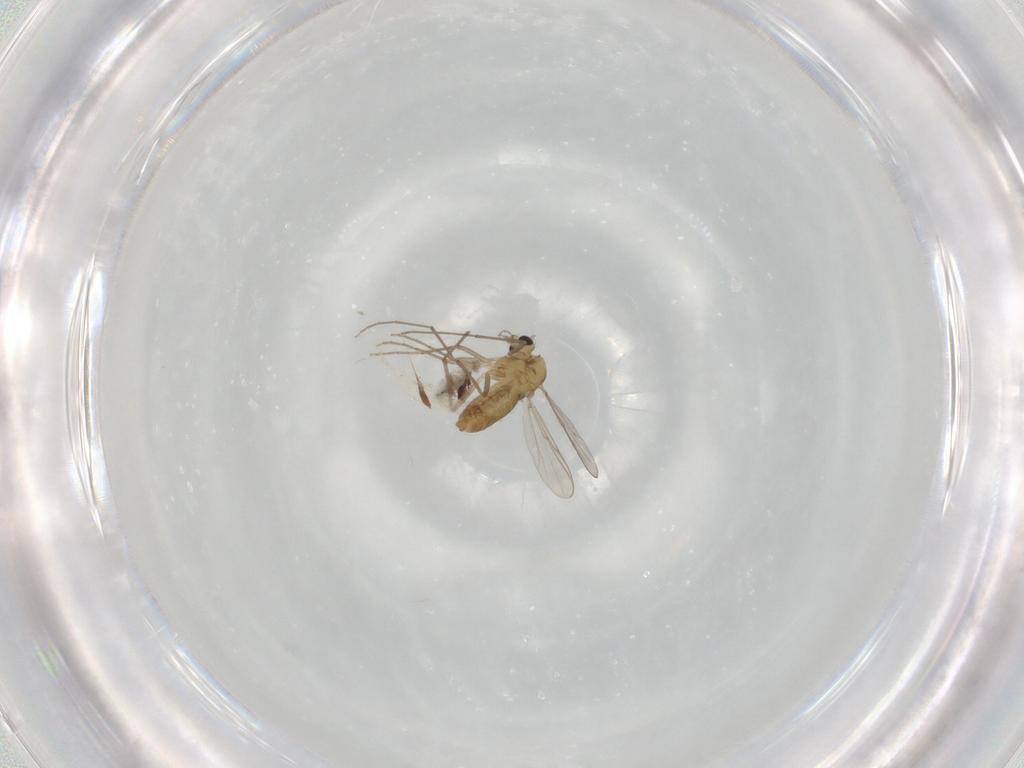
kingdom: Animalia
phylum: Arthropoda
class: Insecta
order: Diptera
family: Chironomidae
